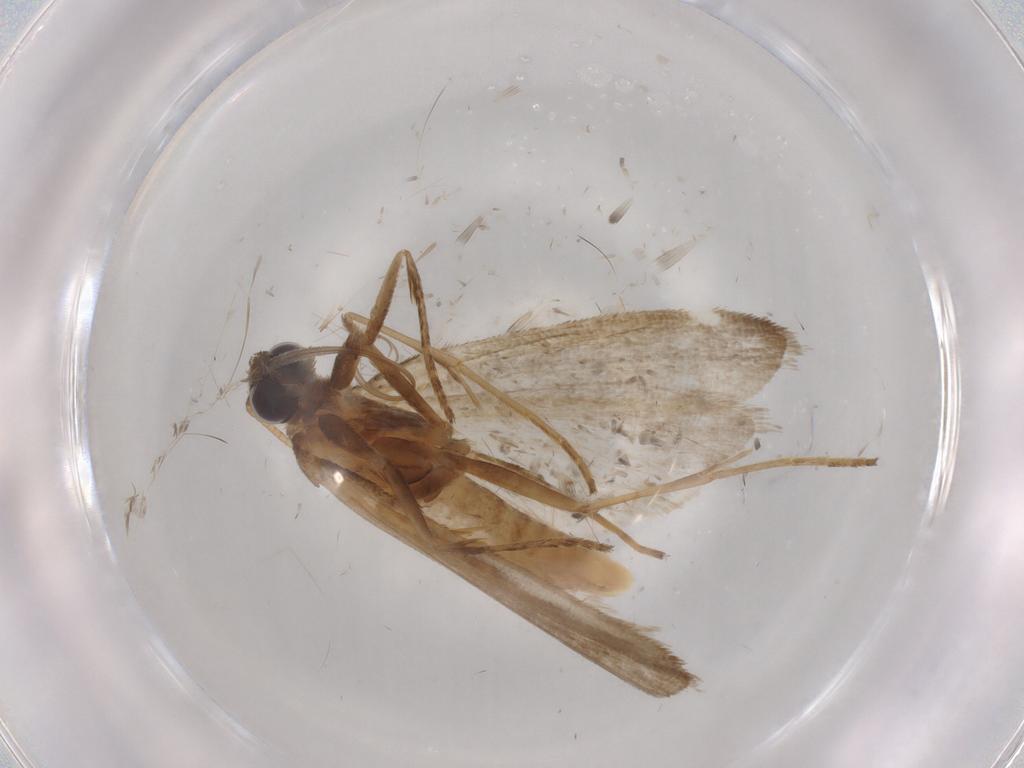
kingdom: Animalia
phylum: Arthropoda
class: Insecta
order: Lepidoptera
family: Noctuidae
